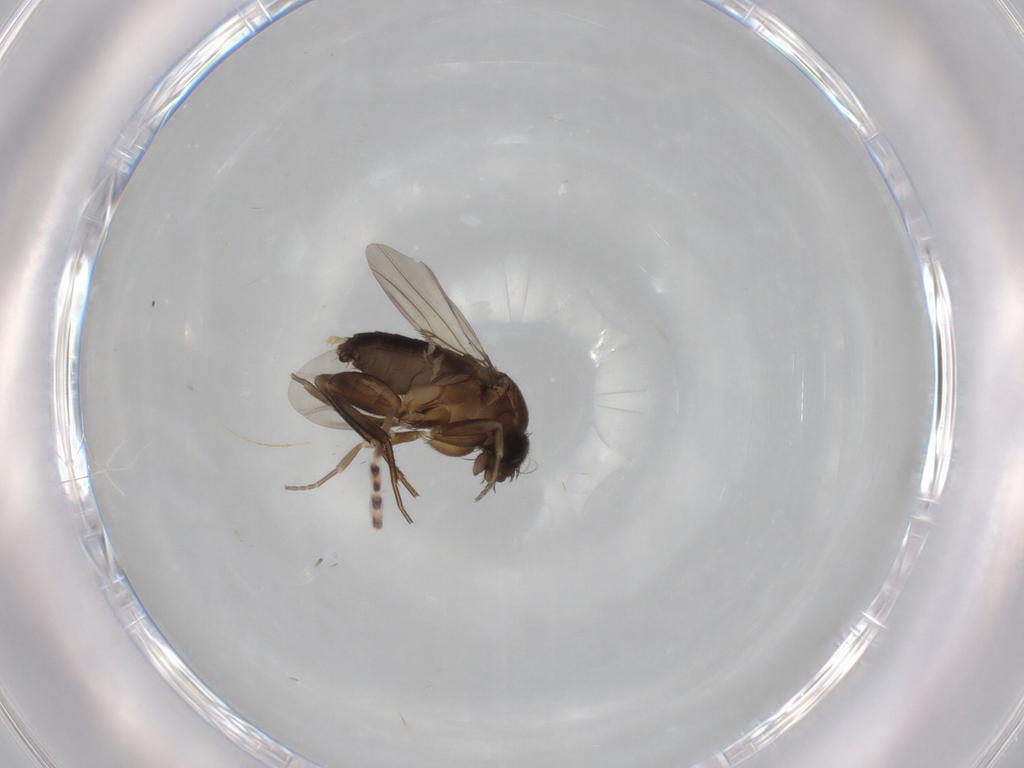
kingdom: Animalia
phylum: Arthropoda
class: Insecta
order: Diptera
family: Phoridae
